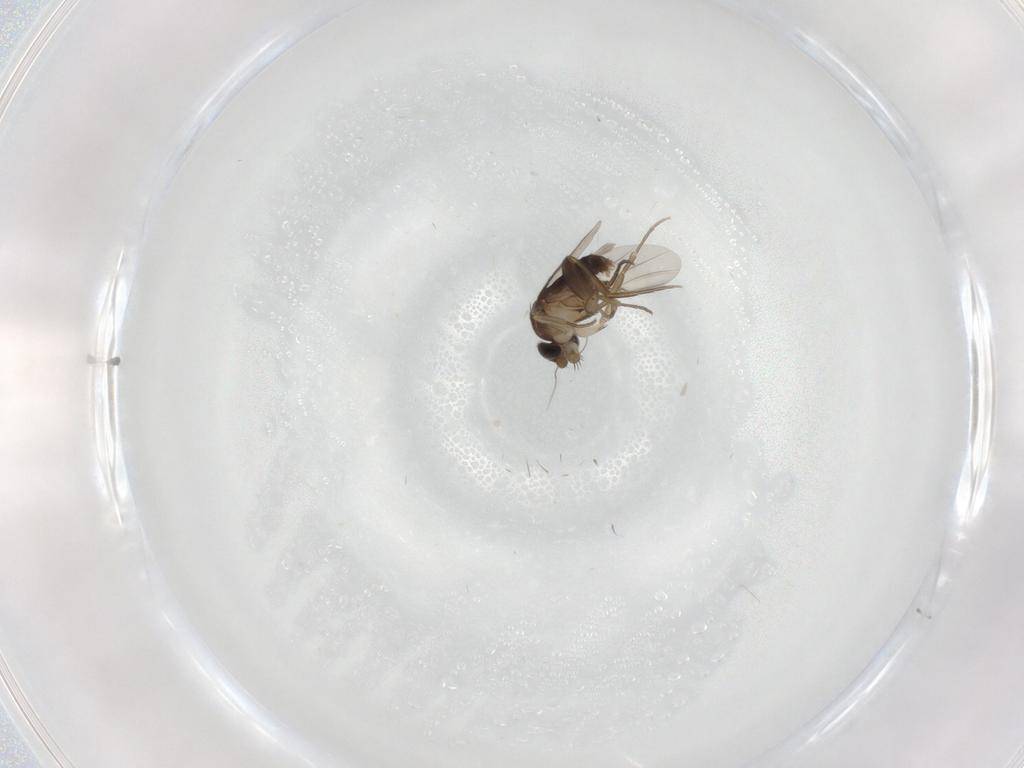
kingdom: Animalia
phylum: Arthropoda
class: Insecta
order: Diptera
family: Phoridae
